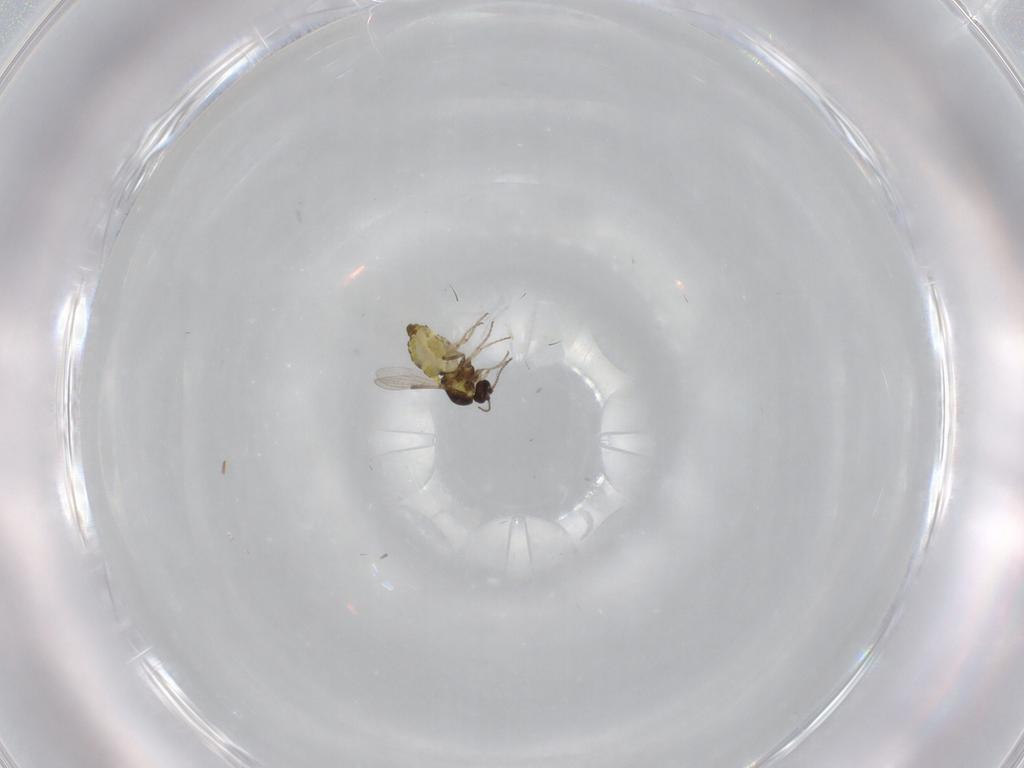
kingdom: Animalia
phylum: Arthropoda
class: Insecta
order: Diptera
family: Ceratopogonidae
